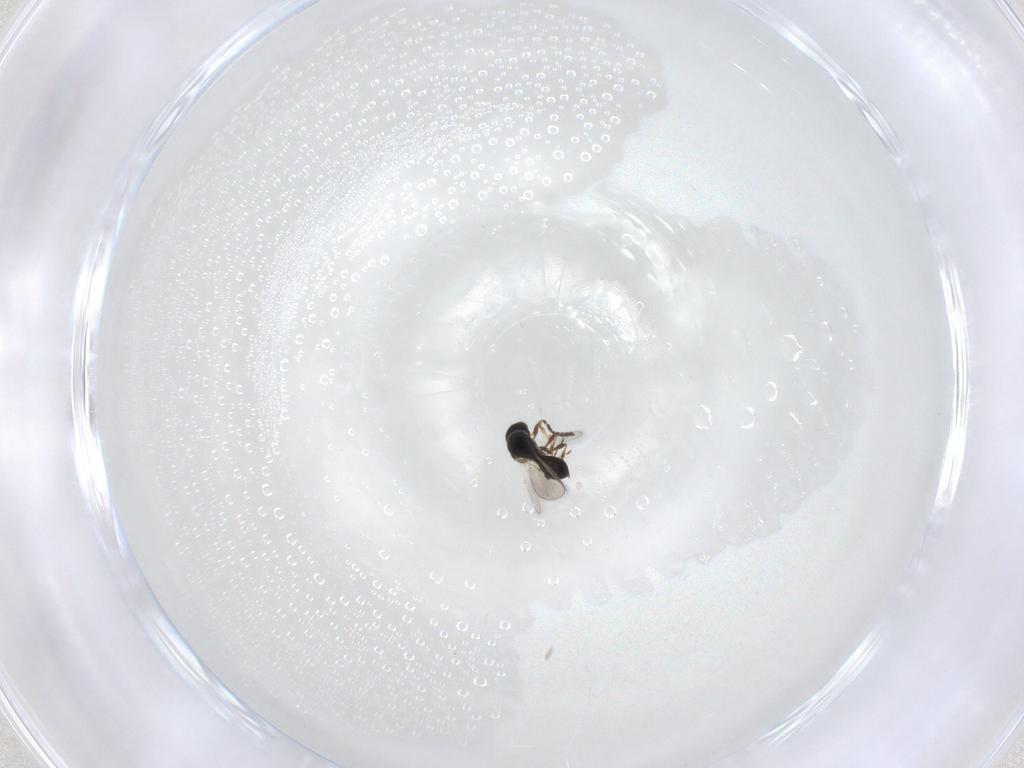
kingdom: Animalia
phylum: Arthropoda
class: Insecta
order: Hymenoptera
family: Platygastridae
